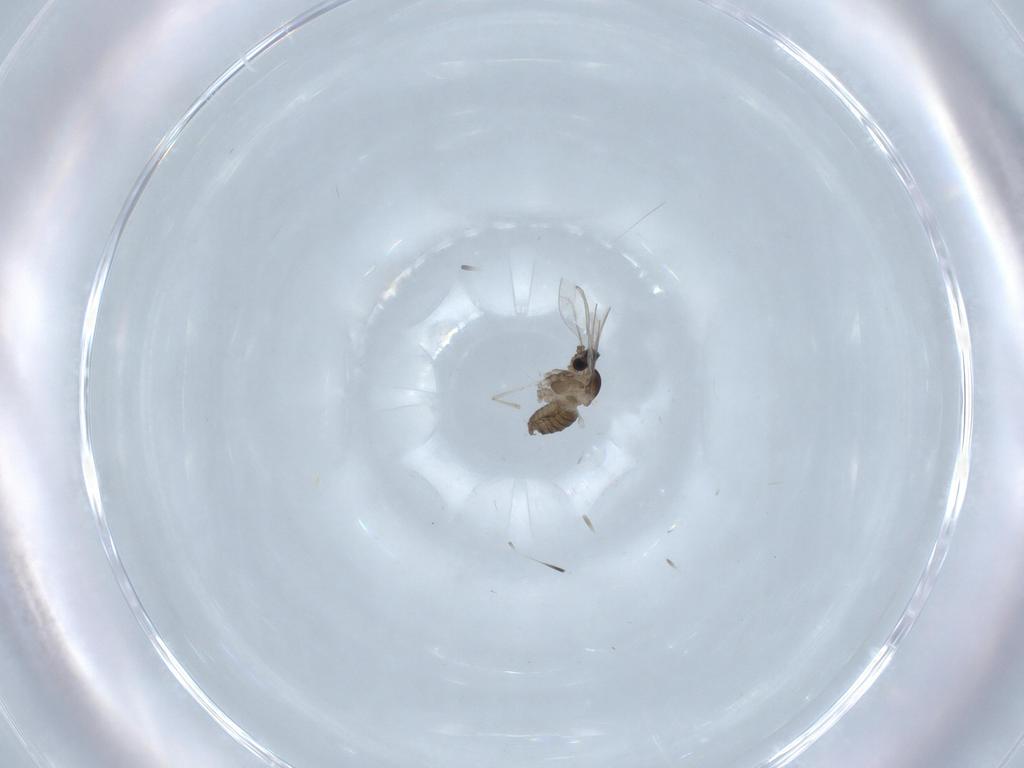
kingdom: Animalia
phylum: Arthropoda
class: Insecta
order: Diptera
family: Cecidomyiidae
